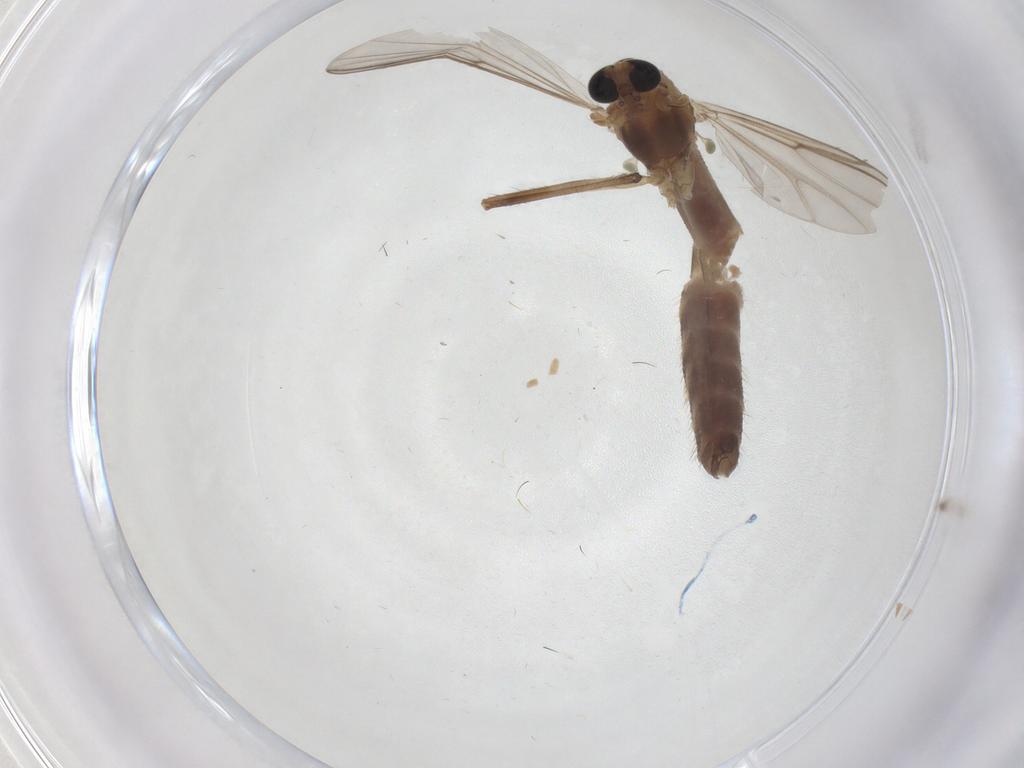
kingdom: Animalia
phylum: Arthropoda
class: Insecta
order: Diptera
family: Chironomidae
